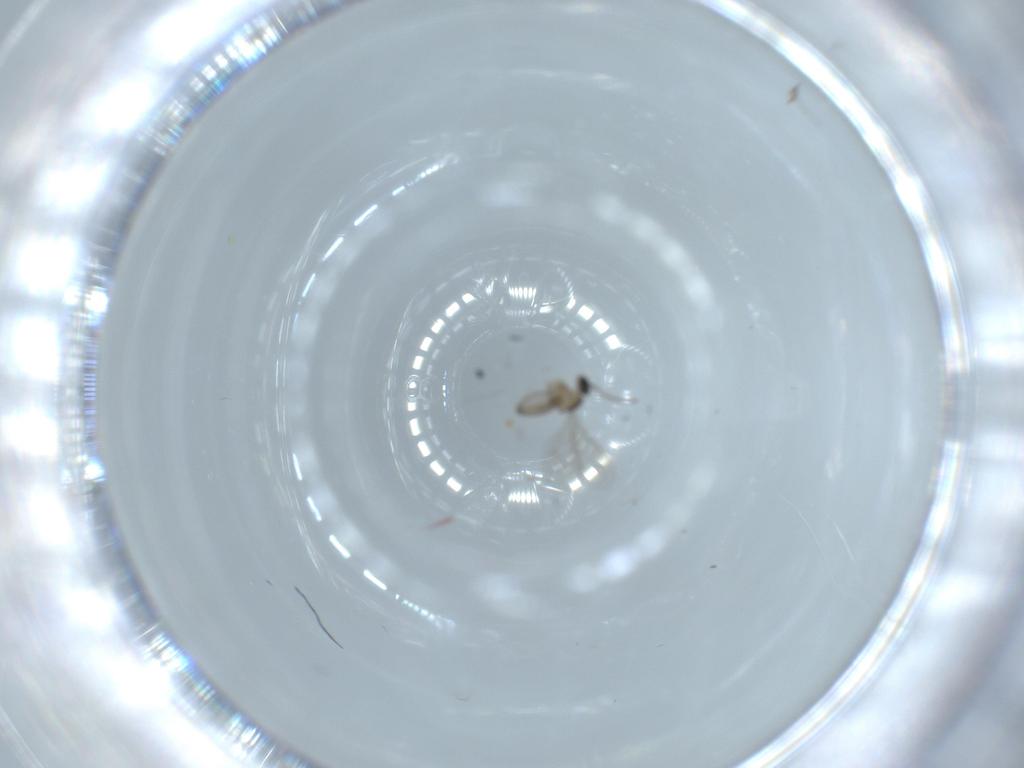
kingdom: Animalia
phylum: Arthropoda
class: Insecta
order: Diptera
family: Cecidomyiidae
